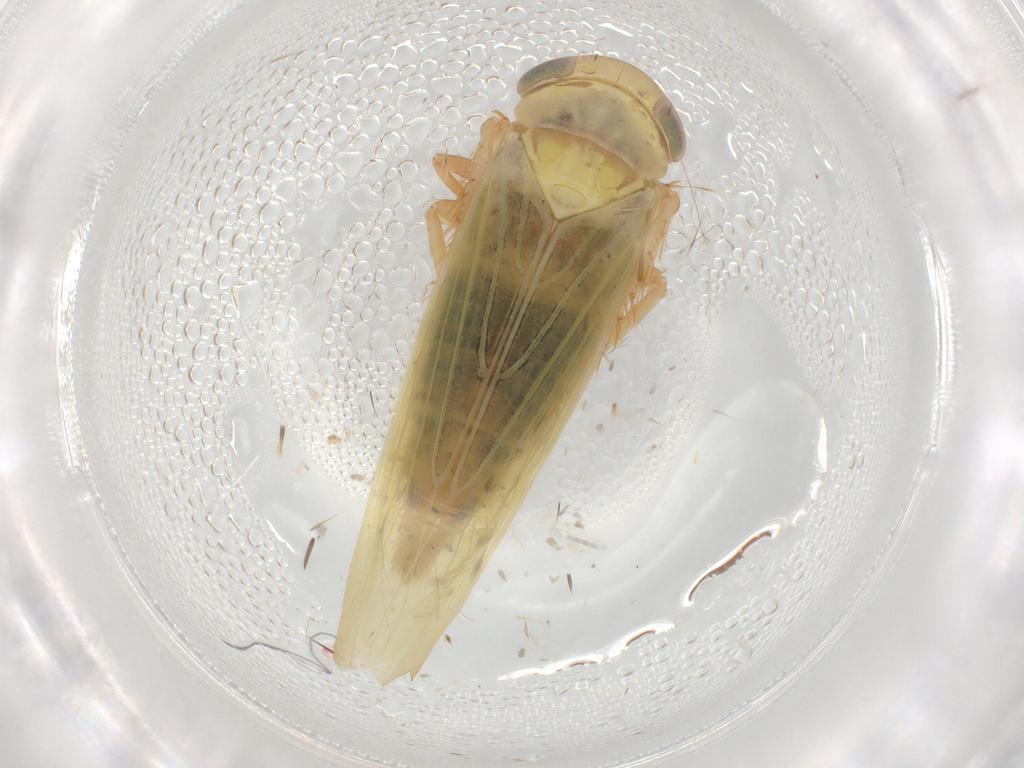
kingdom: Animalia
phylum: Arthropoda
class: Insecta
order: Hemiptera
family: Cicadellidae
